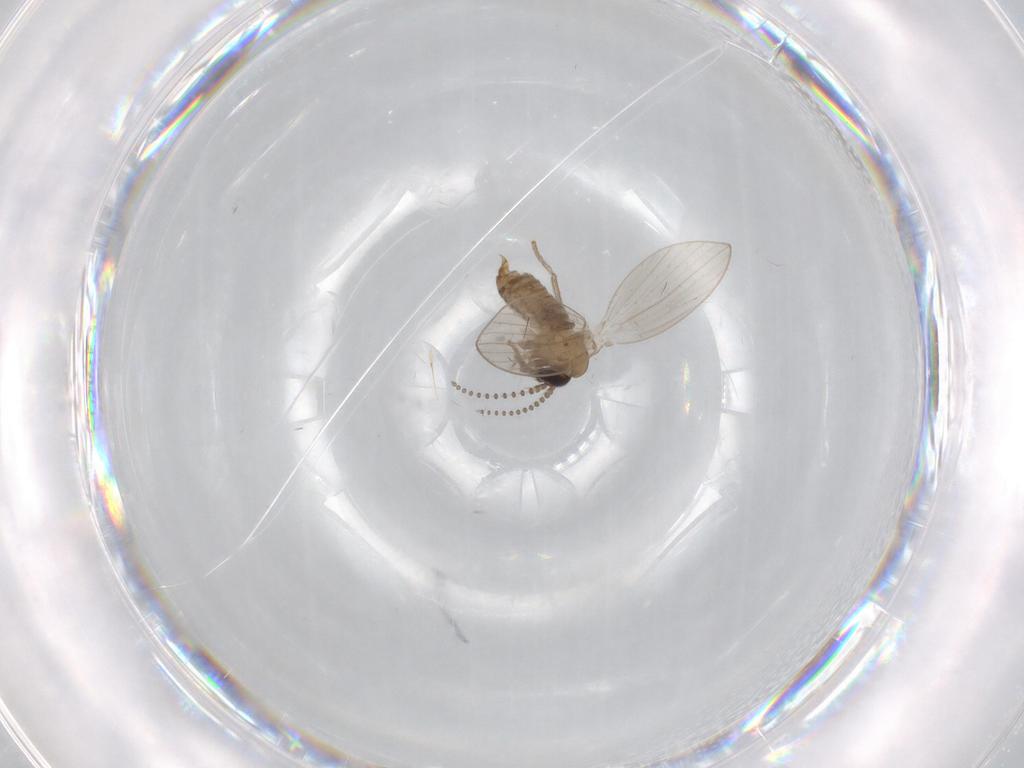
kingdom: Animalia
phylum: Arthropoda
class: Insecta
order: Diptera
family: Psychodidae
